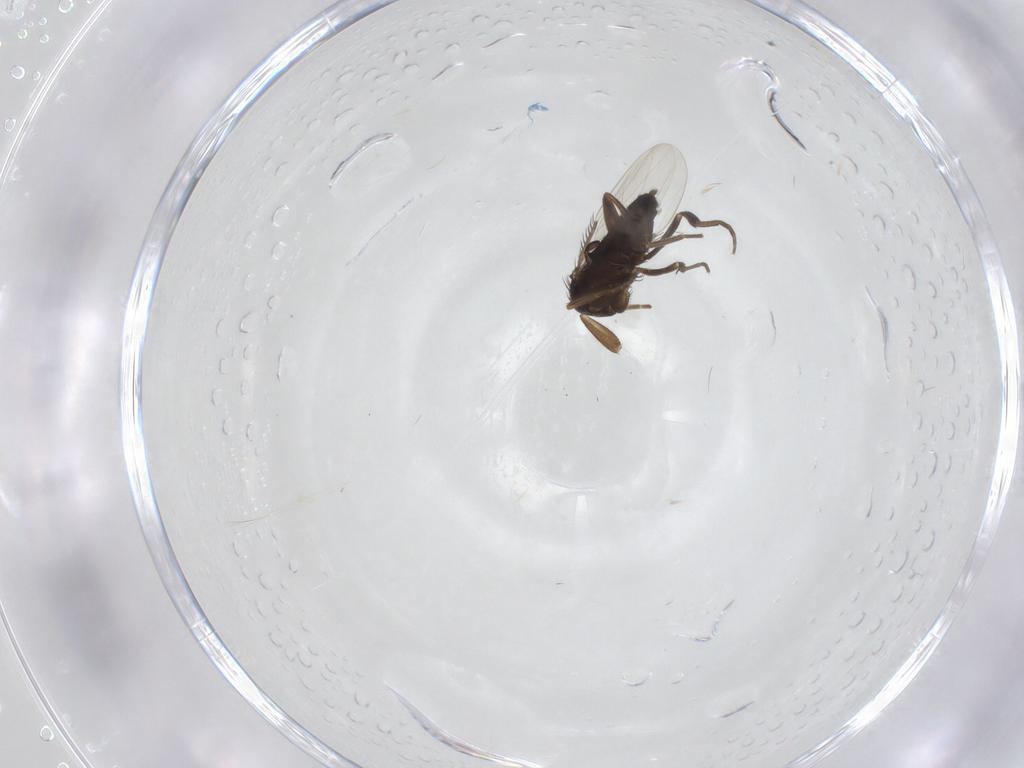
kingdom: Animalia
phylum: Arthropoda
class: Insecta
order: Diptera
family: Phoridae
